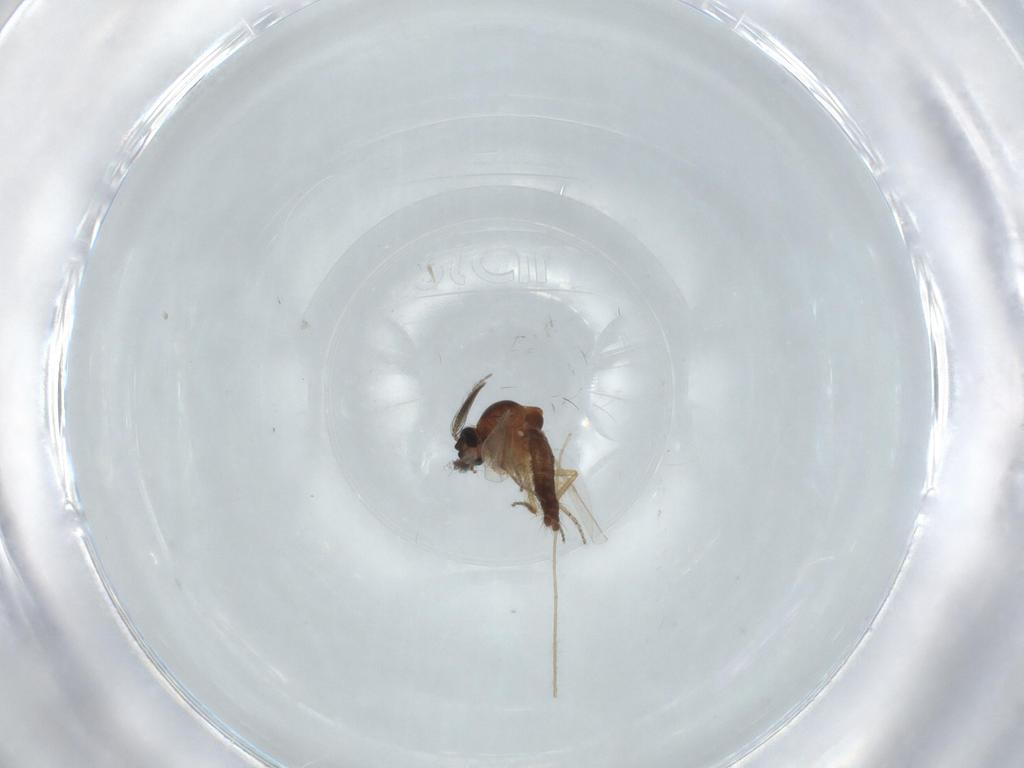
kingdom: Animalia
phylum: Arthropoda
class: Insecta
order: Diptera
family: Ceratopogonidae
